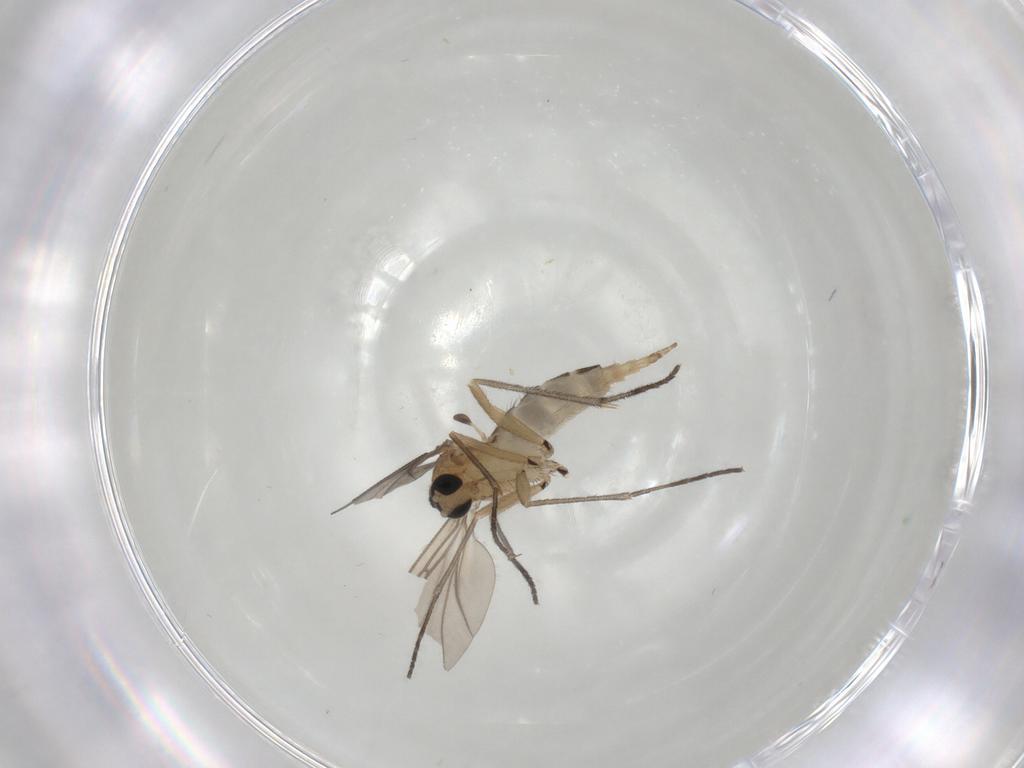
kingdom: Animalia
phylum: Arthropoda
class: Insecta
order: Diptera
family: Sciaridae
